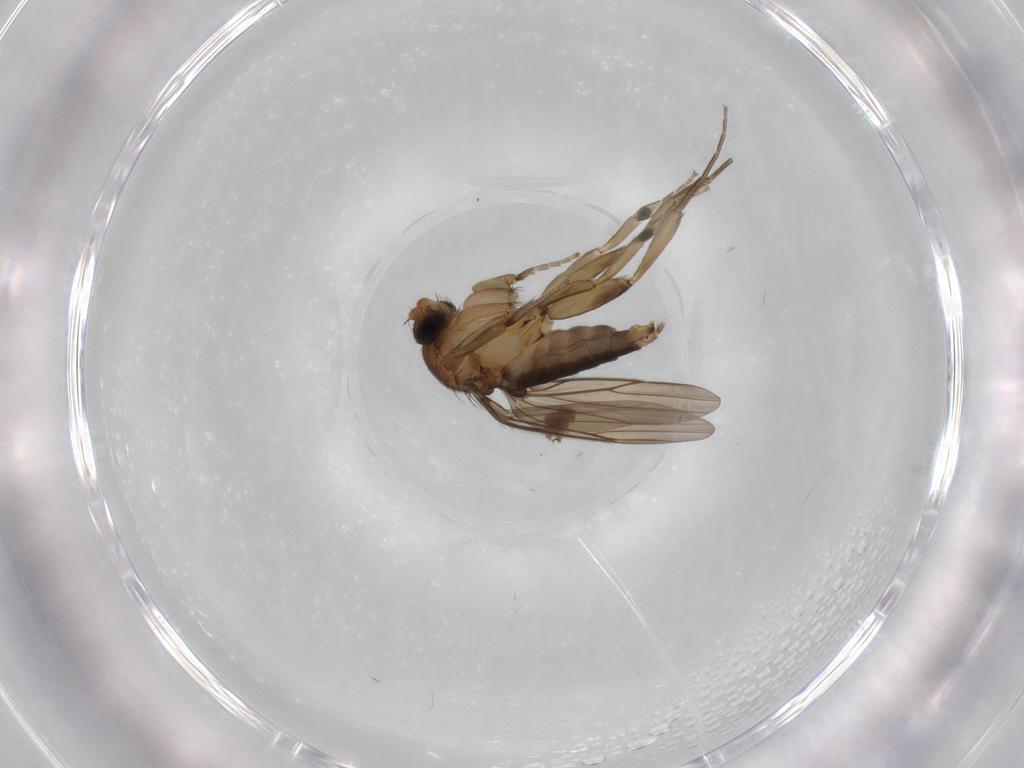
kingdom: Animalia
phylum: Arthropoda
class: Insecta
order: Diptera
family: Phoridae
